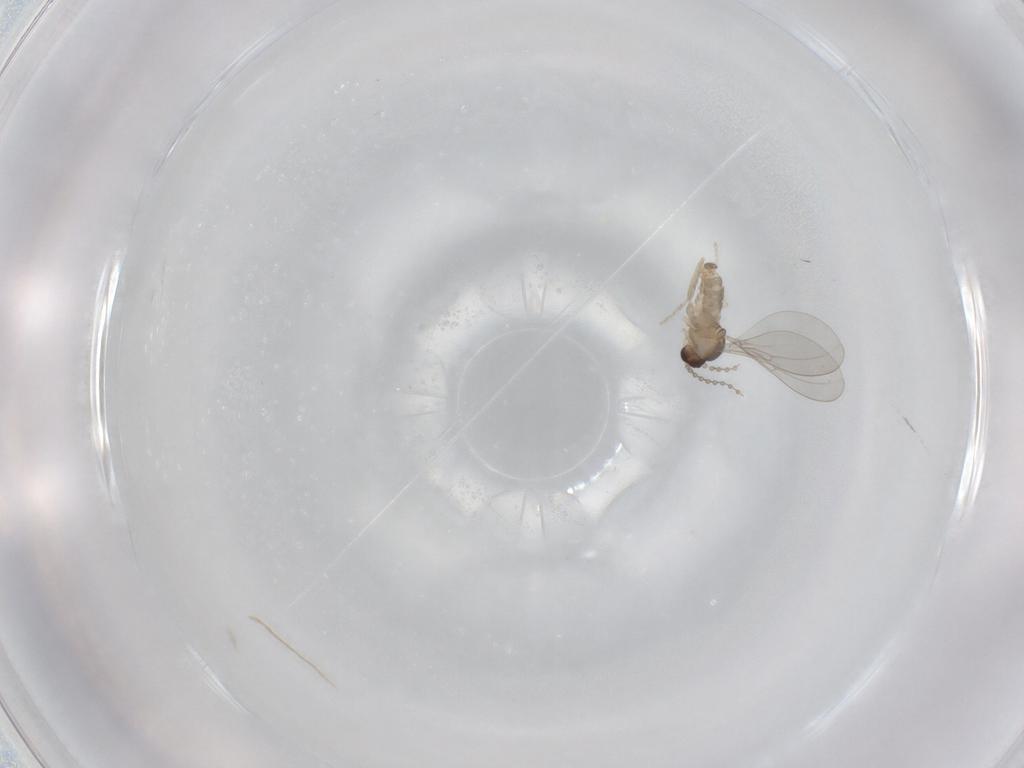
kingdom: Animalia
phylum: Arthropoda
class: Insecta
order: Diptera
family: Cecidomyiidae
